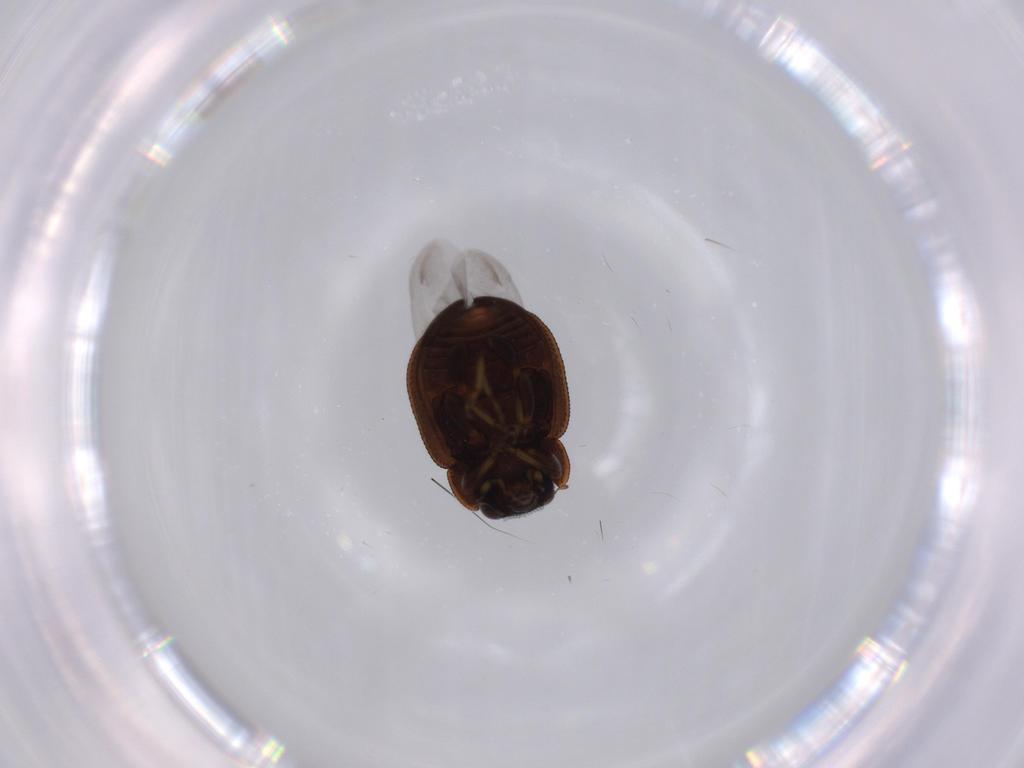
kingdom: Animalia
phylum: Arthropoda
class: Insecta
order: Coleoptera
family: Coccinellidae
